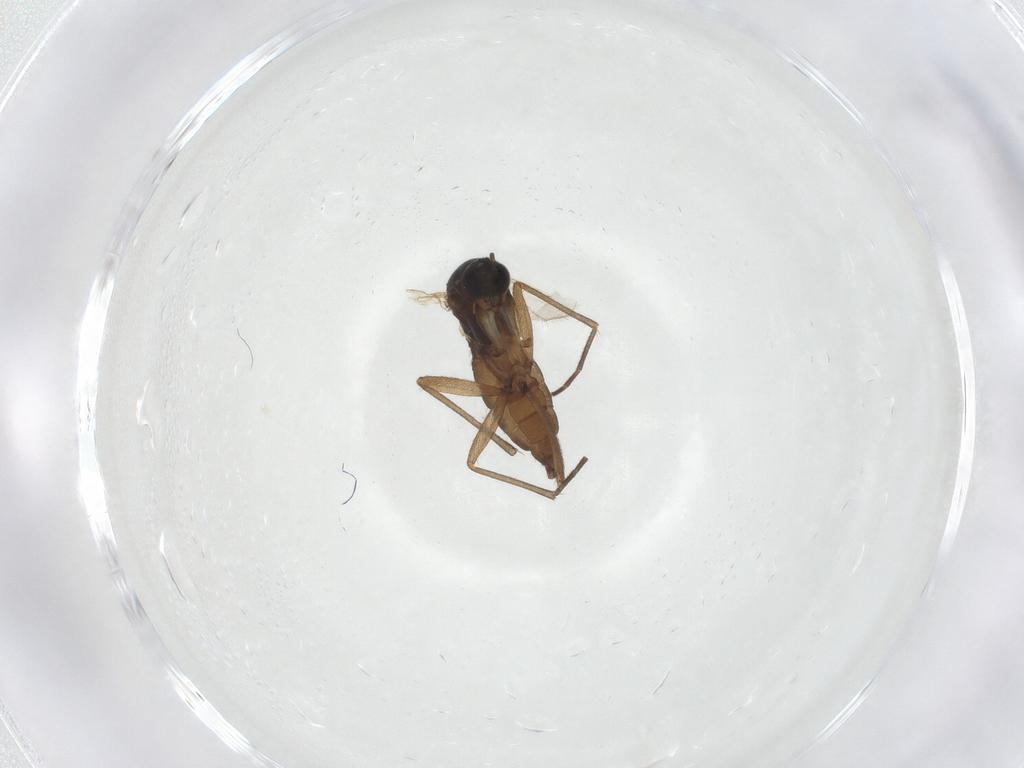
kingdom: Animalia
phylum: Arthropoda
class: Insecta
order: Diptera
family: Sciaridae
